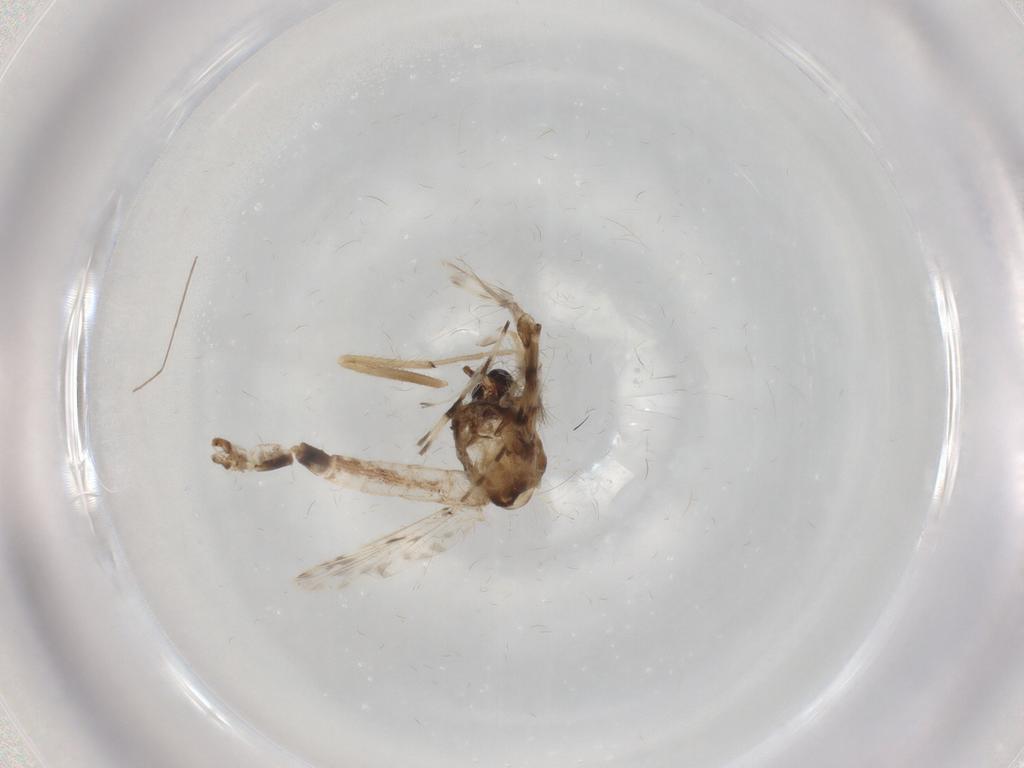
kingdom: Animalia
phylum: Arthropoda
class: Insecta
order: Diptera
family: Chironomidae
